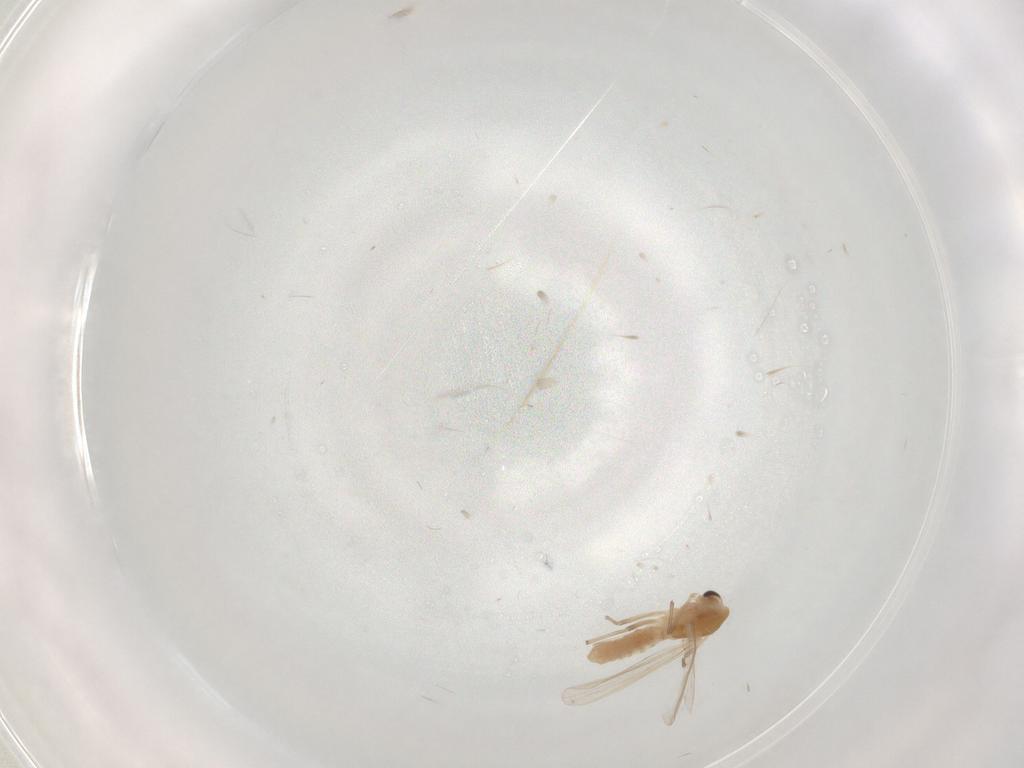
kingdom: Animalia
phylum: Arthropoda
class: Insecta
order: Diptera
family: Chironomidae
